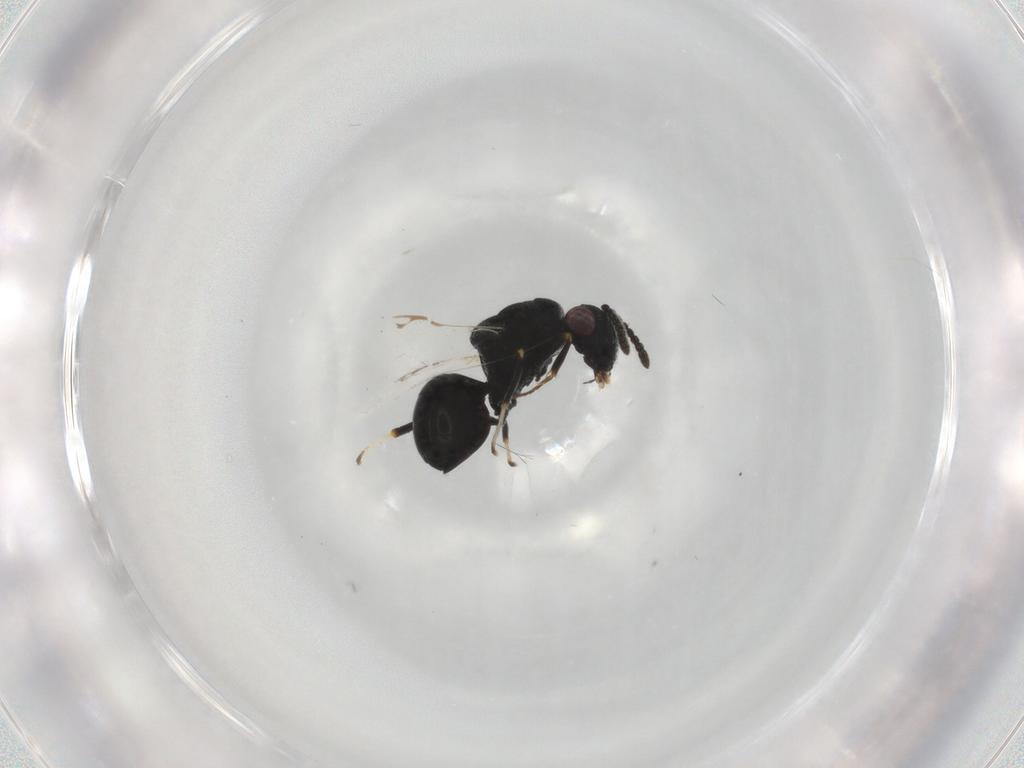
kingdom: Animalia
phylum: Arthropoda
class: Insecta
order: Hymenoptera
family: Eurytomidae
